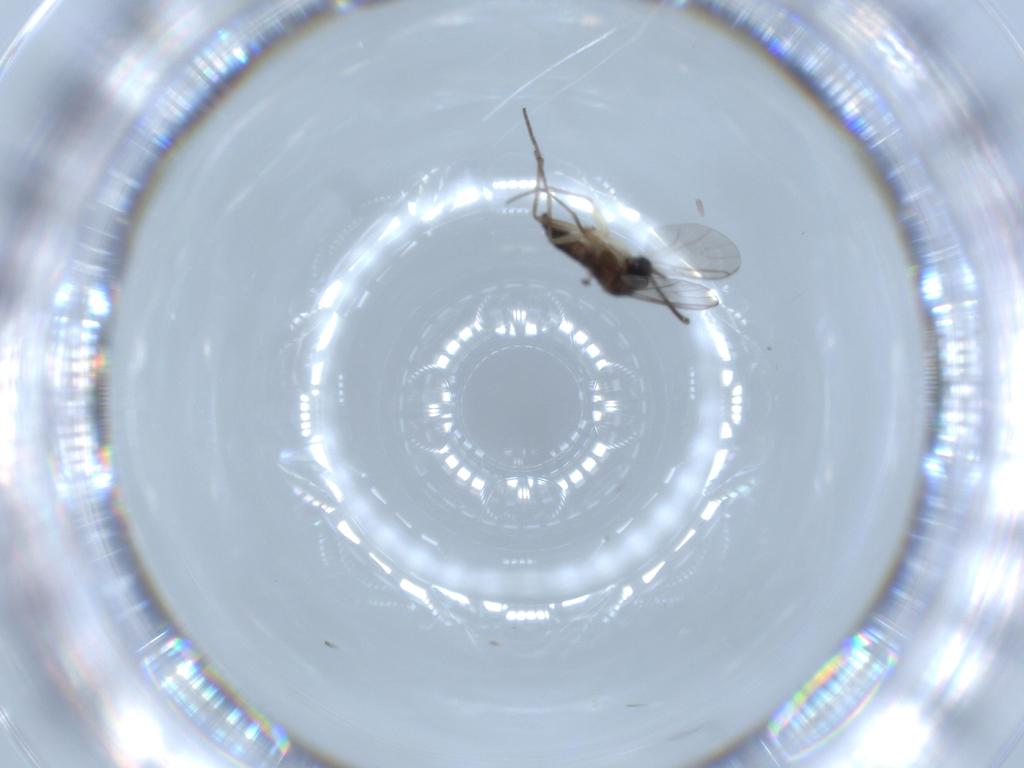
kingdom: Animalia
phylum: Arthropoda
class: Insecta
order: Diptera
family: Sciaridae
